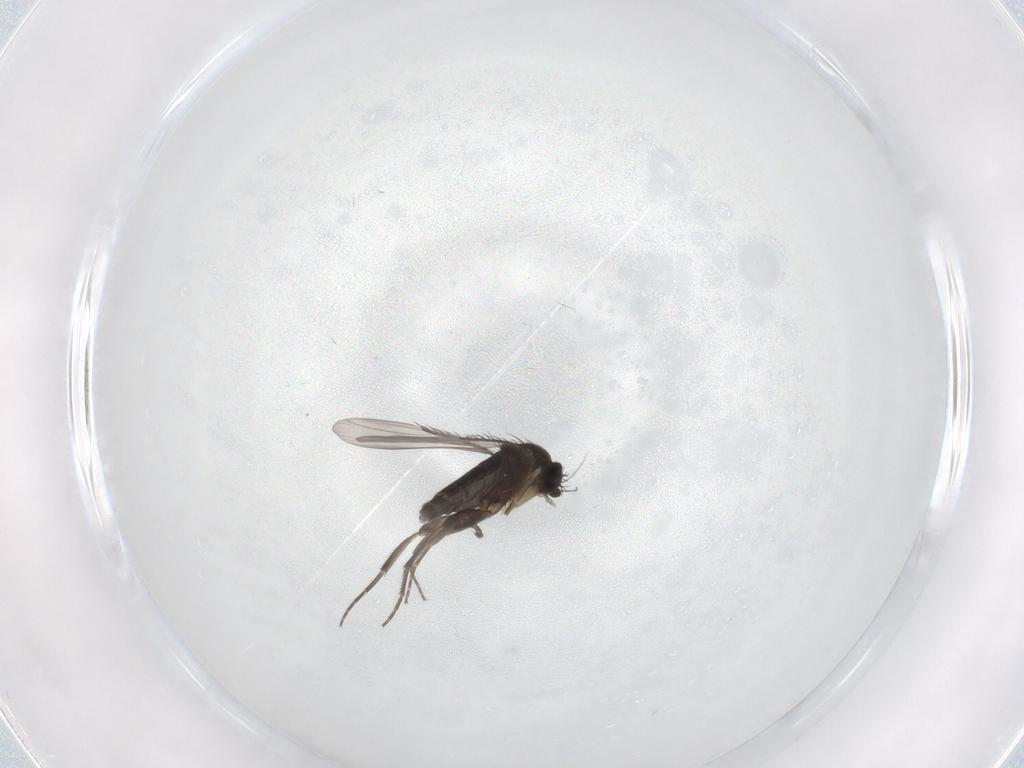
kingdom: Animalia
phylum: Arthropoda
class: Insecta
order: Diptera
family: Phoridae
